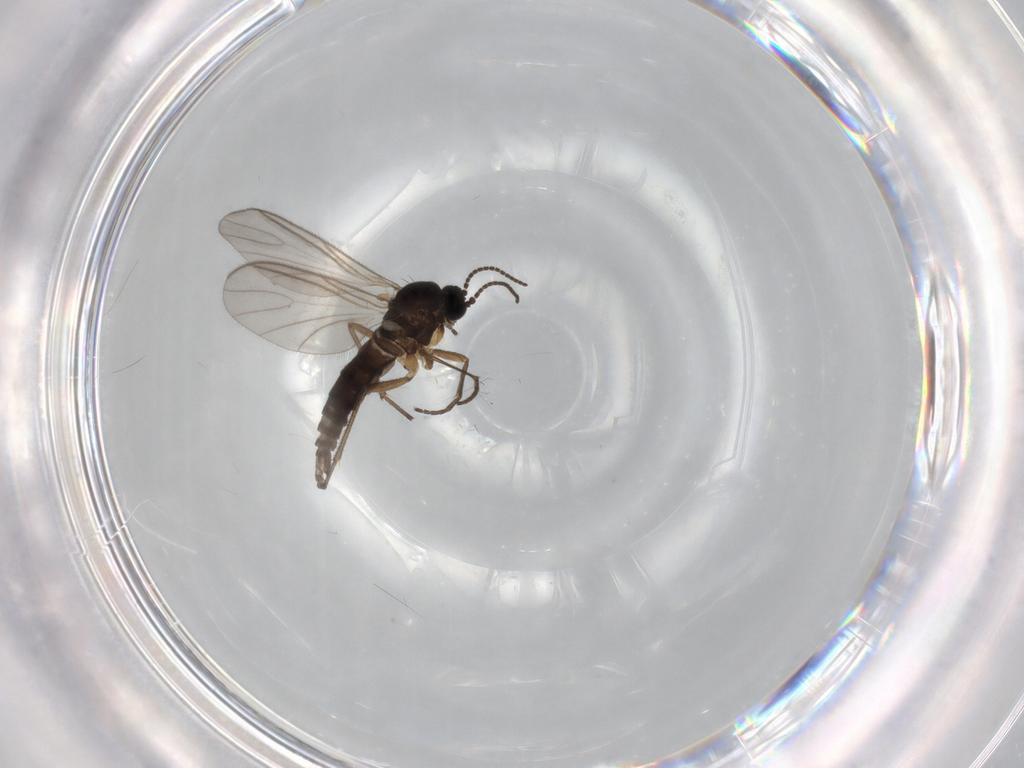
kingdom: Animalia
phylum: Arthropoda
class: Insecta
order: Diptera
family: Sciaridae
